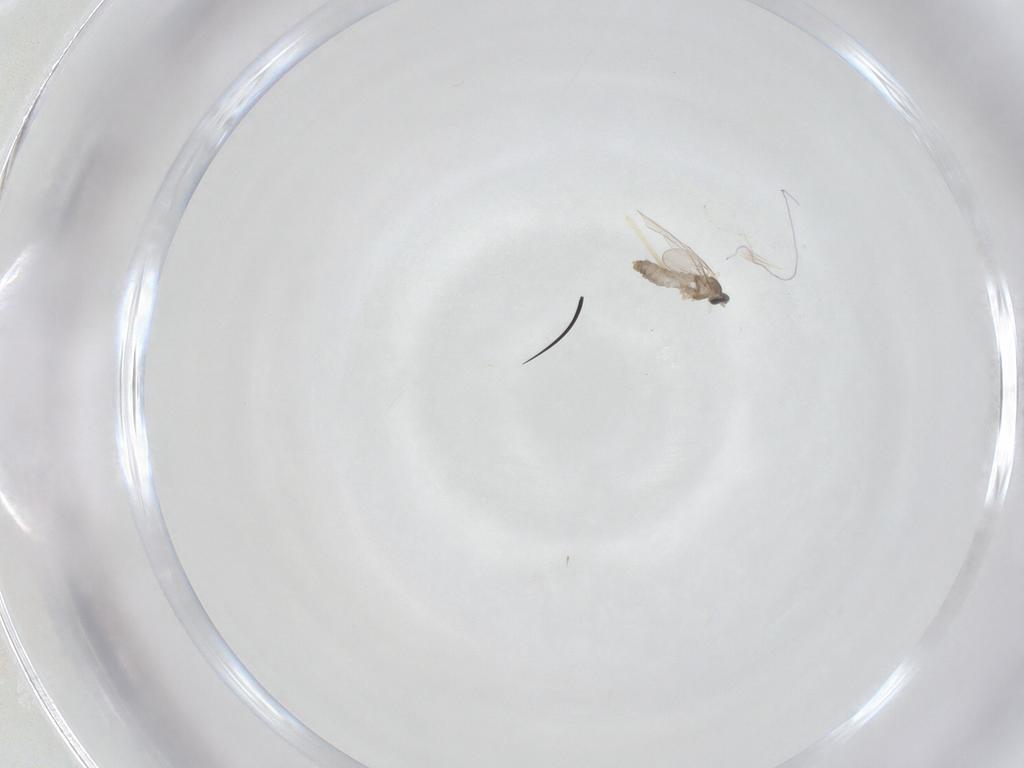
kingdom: Animalia
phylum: Arthropoda
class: Insecta
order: Diptera
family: Cecidomyiidae
